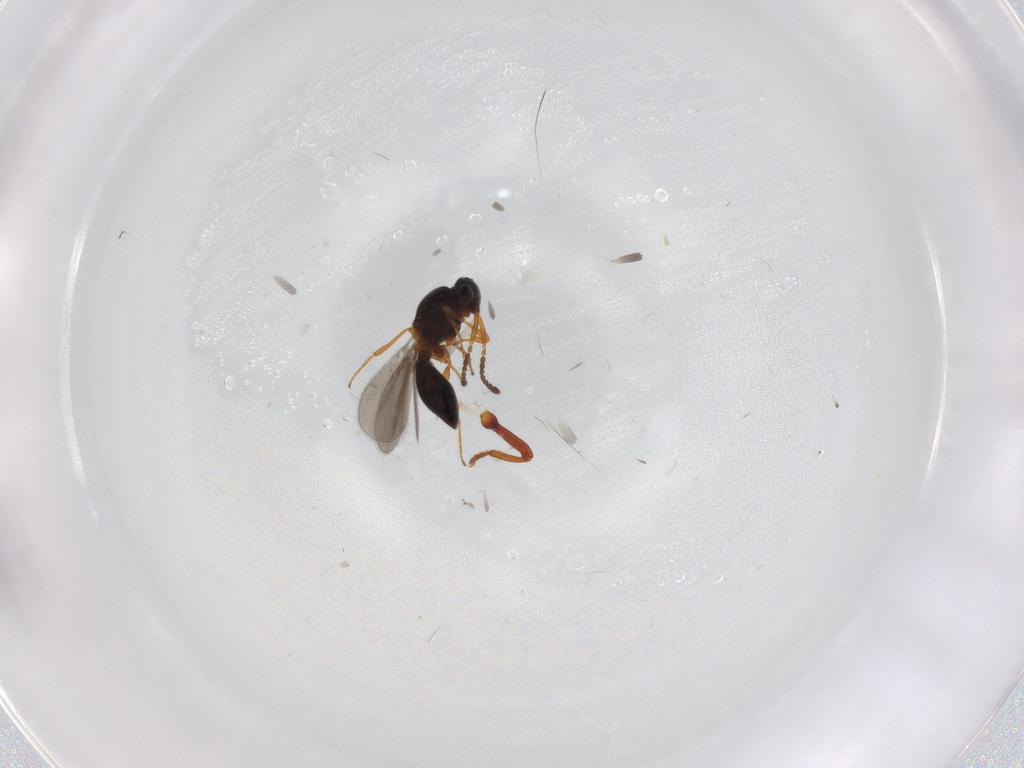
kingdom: Animalia
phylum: Arthropoda
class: Insecta
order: Hymenoptera
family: Platygastridae
